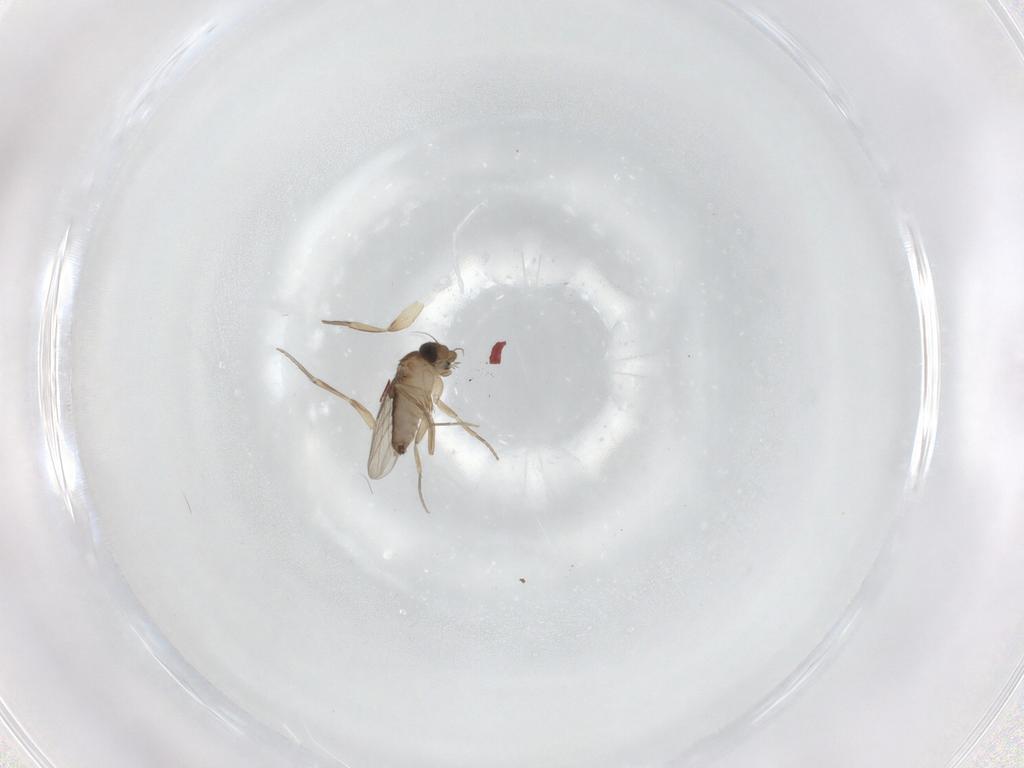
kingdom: Animalia
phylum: Arthropoda
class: Insecta
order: Diptera
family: Phoridae
